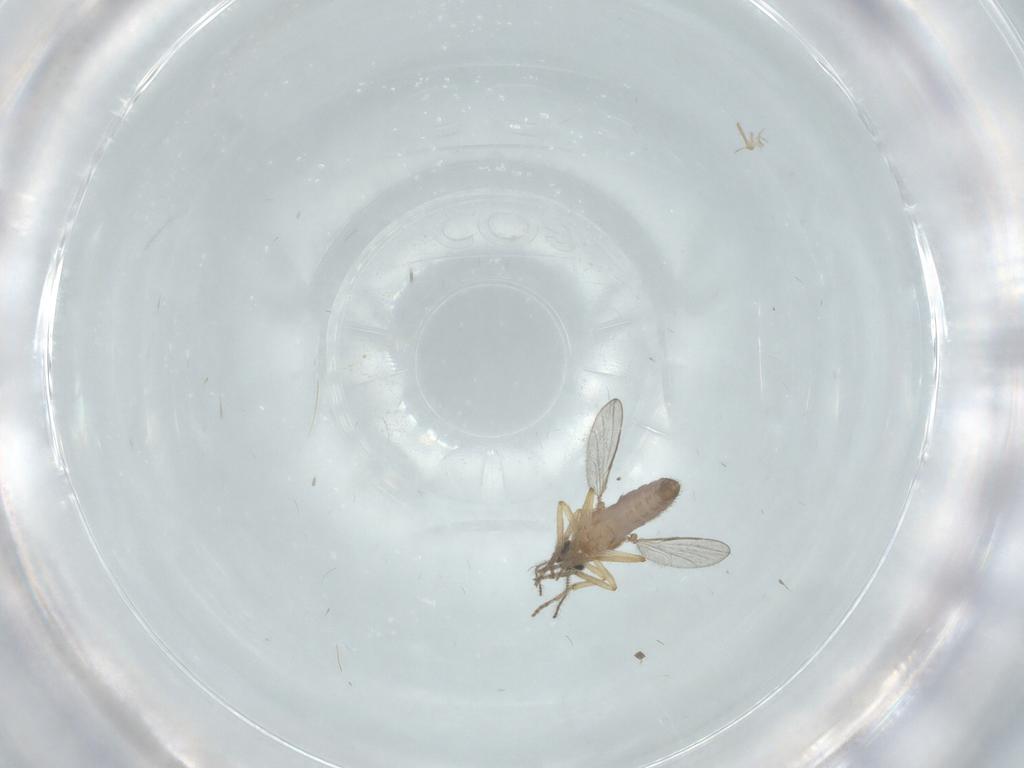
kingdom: Animalia
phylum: Arthropoda
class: Insecta
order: Diptera
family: Ceratopogonidae
